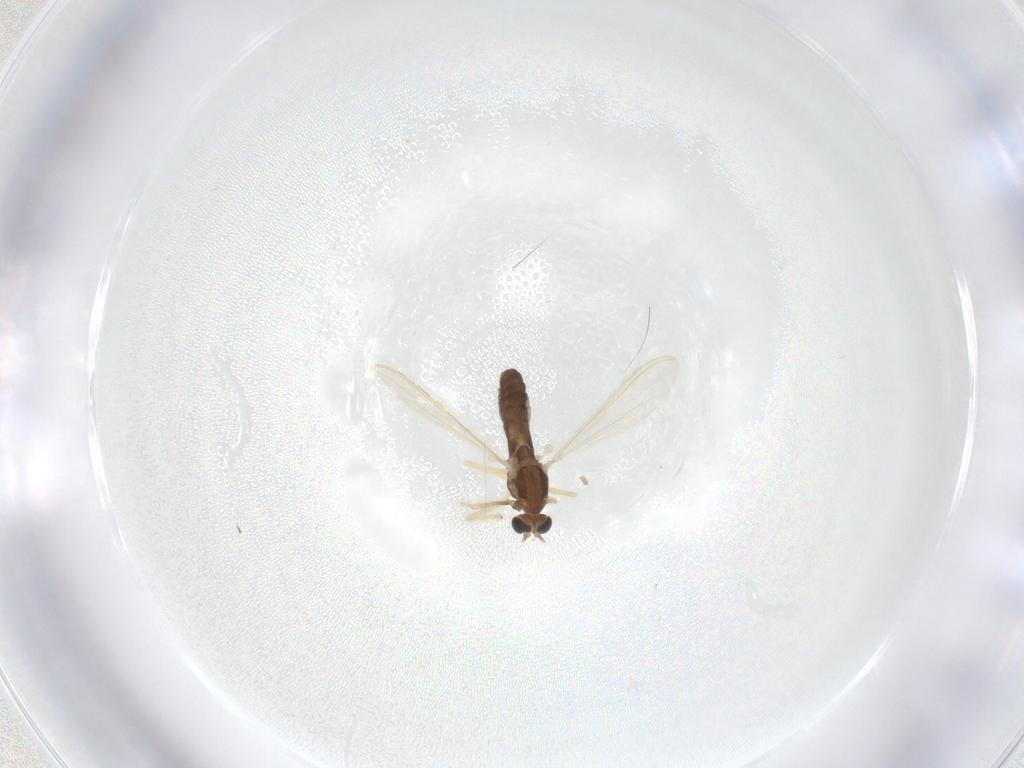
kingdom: Animalia
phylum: Arthropoda
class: Insecta
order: Diptera
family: Chironomidae
